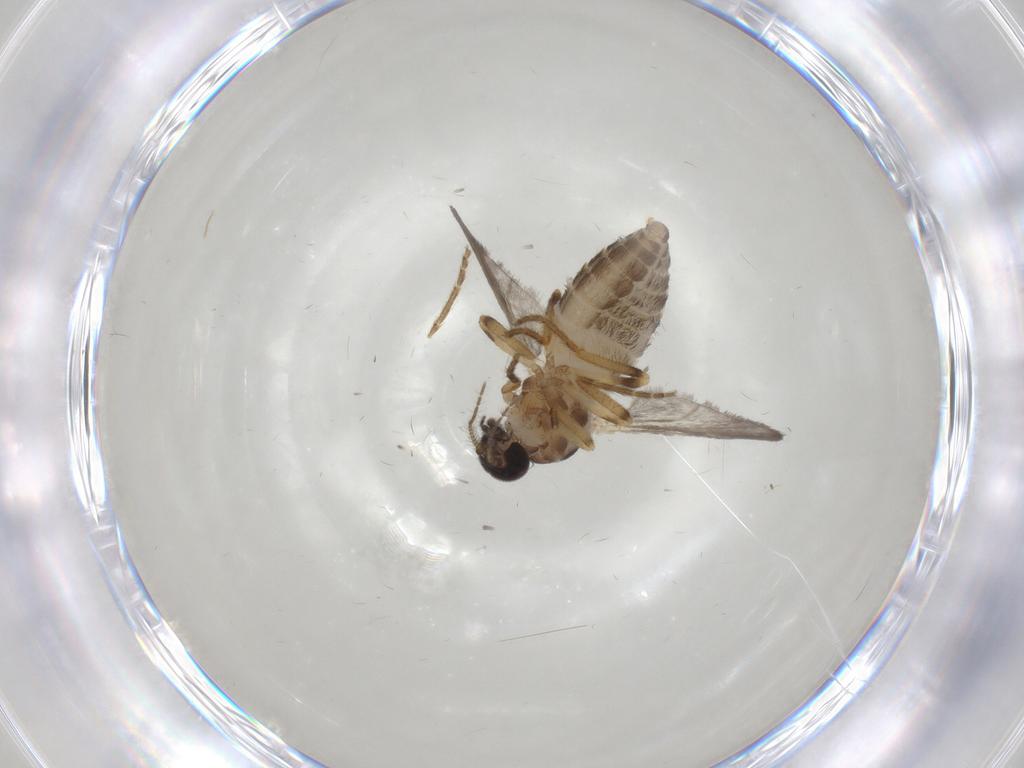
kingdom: Animalia
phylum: Arthropoda
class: Insecta
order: Diptera
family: Ceratopogonidae
